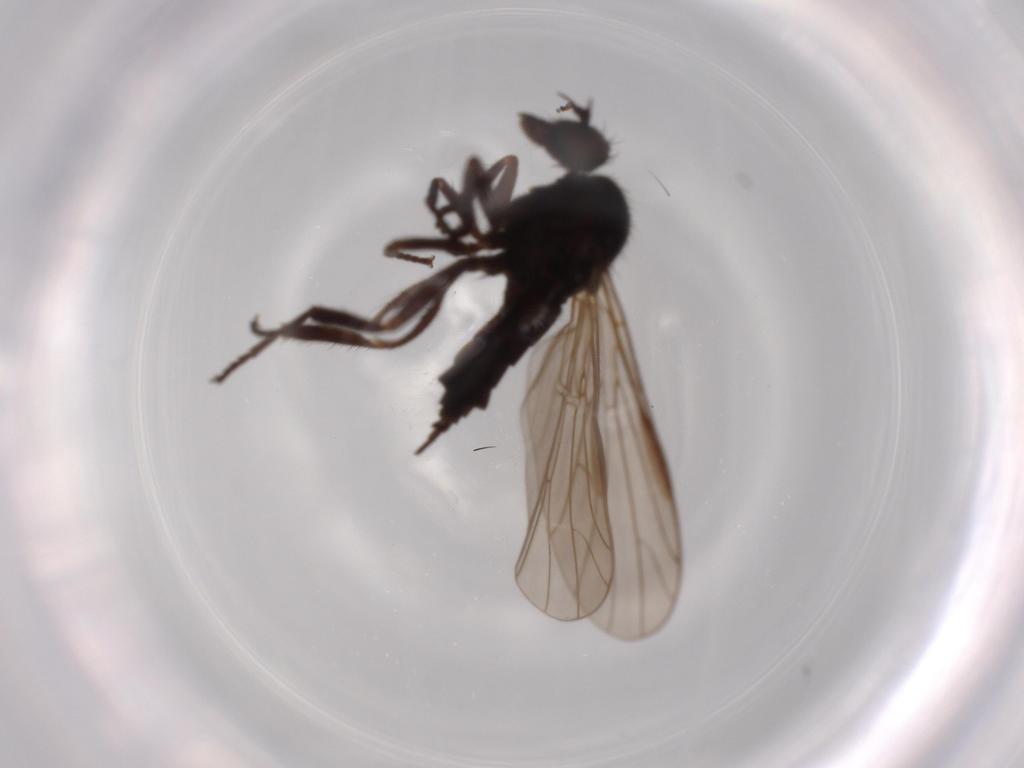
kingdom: Animalia
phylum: Arthropoda
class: Insecta
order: Diptera
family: Empididae
